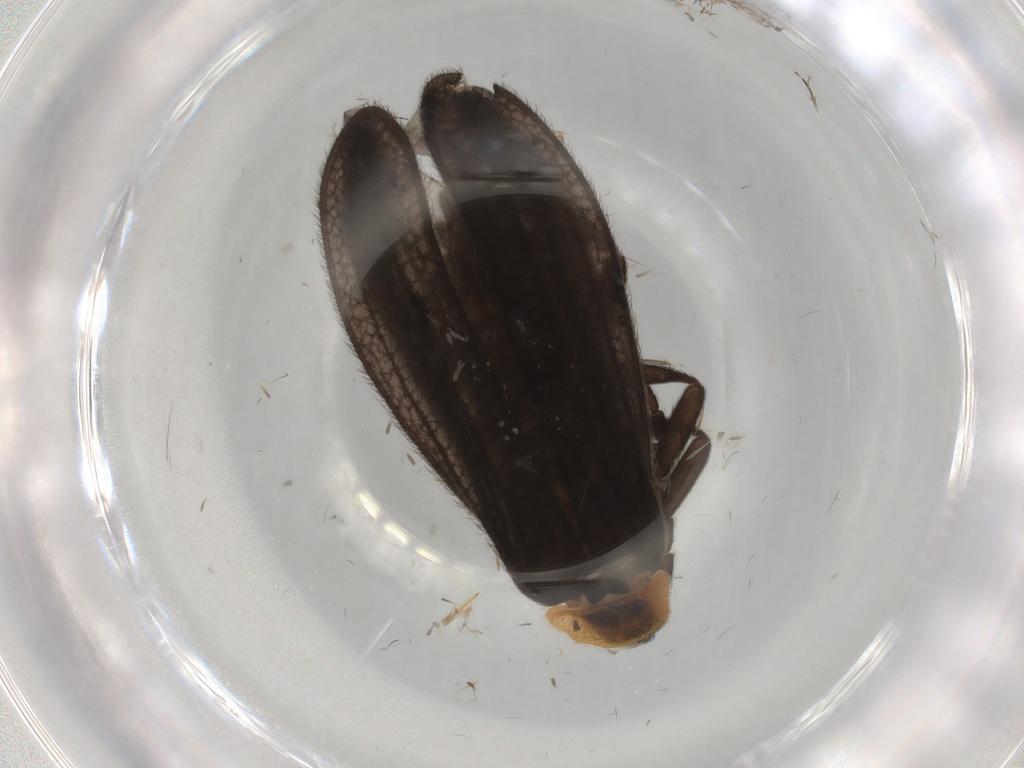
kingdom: Animalia
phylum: Arthropoda
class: Insecta
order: Coleoptera
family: Lycidae
